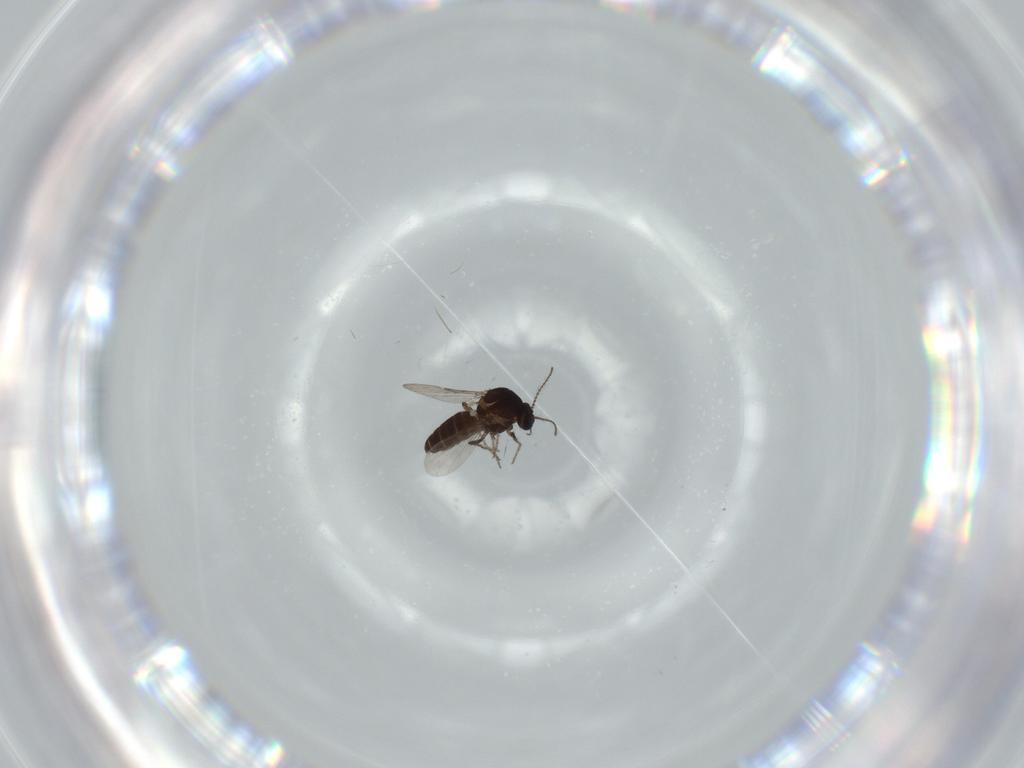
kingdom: Animalia
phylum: Arthropoda
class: Insecta
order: Diptera
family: Ceratopogonidae
